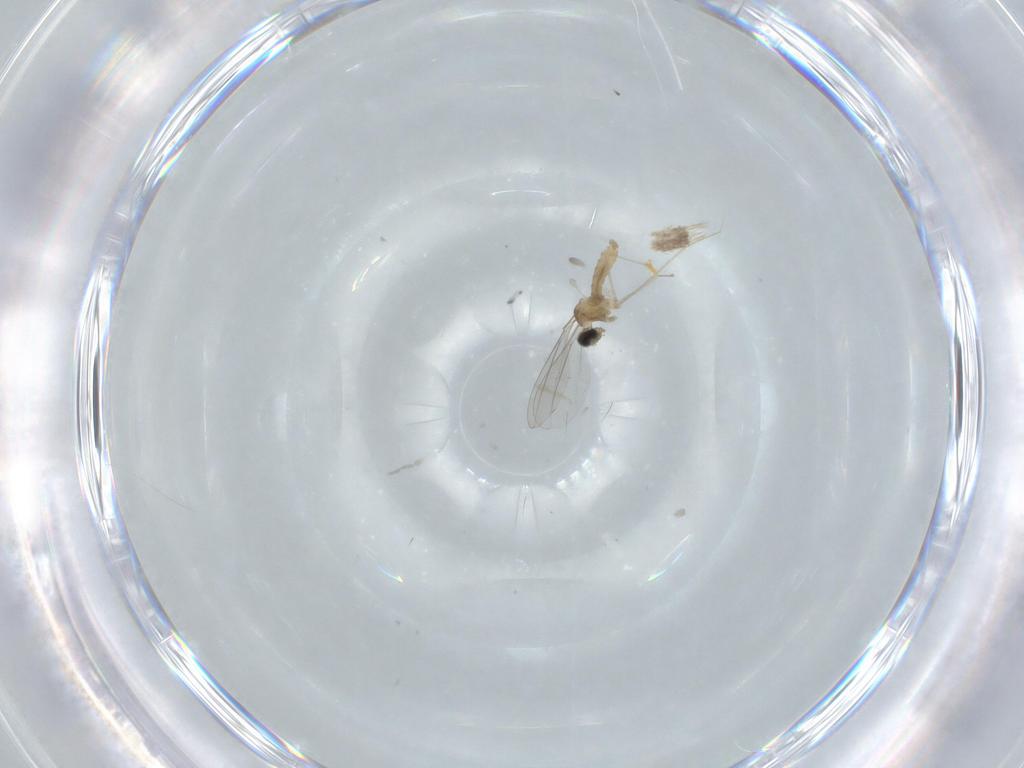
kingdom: Animalia
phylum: Arthropoda
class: Insecta
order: Diptera
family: Cecidomyiidae
